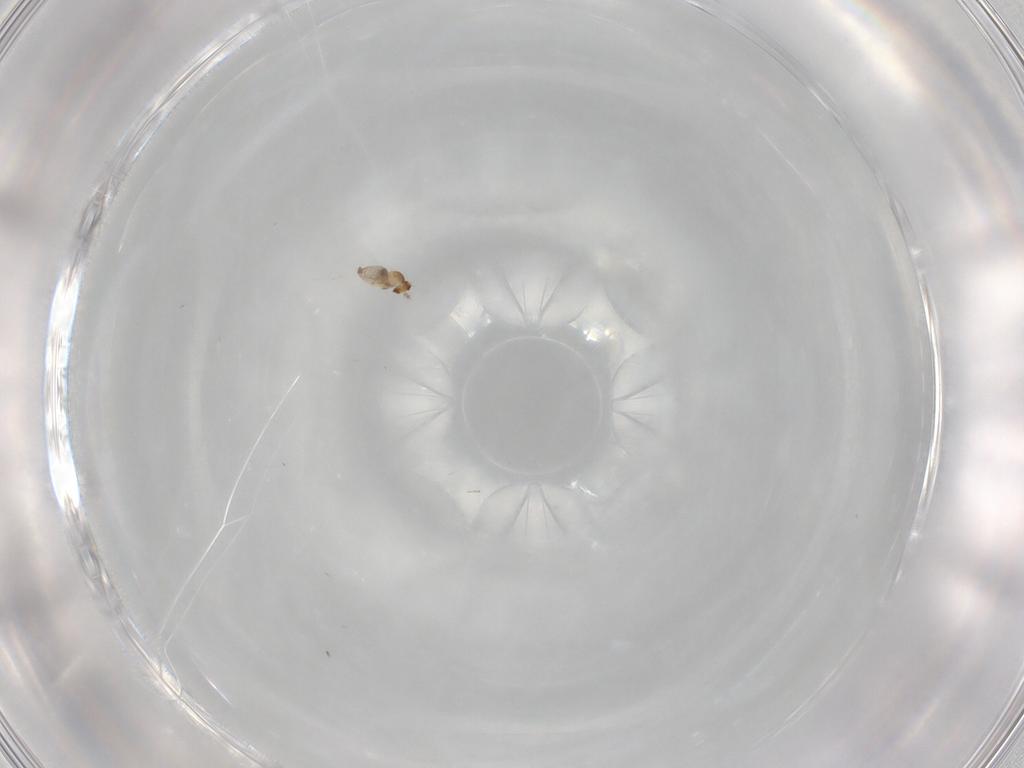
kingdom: Animalia
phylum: Arthropoda
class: Insecta
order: Diptera
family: Cecidomyiidae
